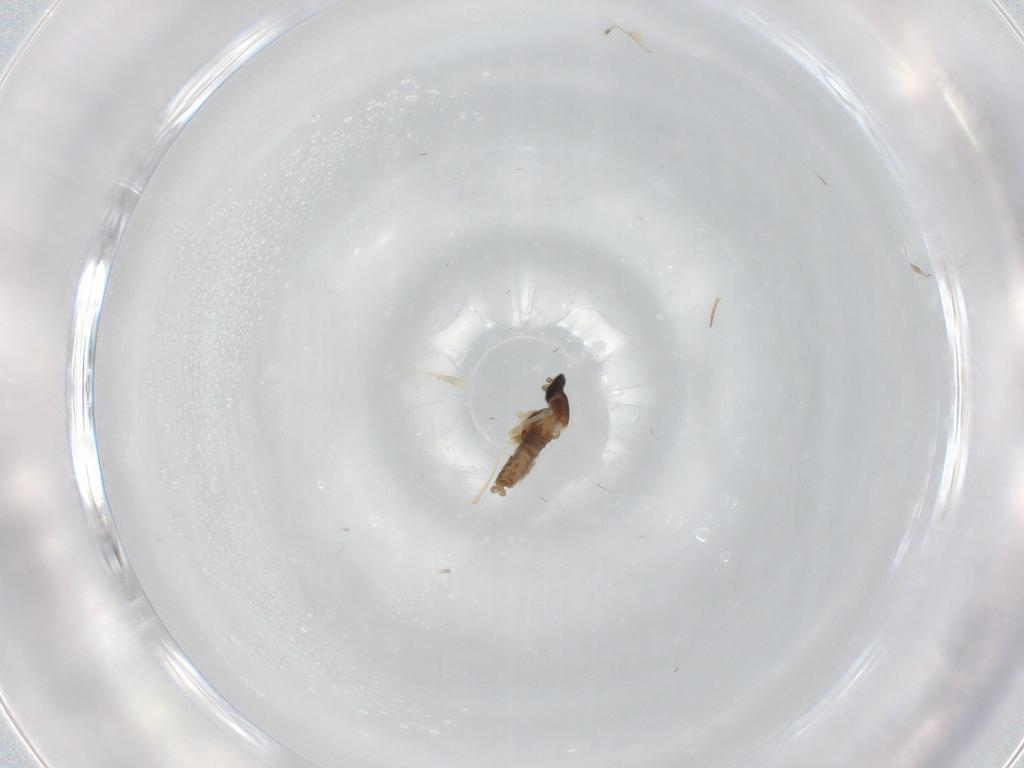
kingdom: Animalia
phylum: Arthropoda
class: Insecta
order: Diptera
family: Cecidomyiidae
